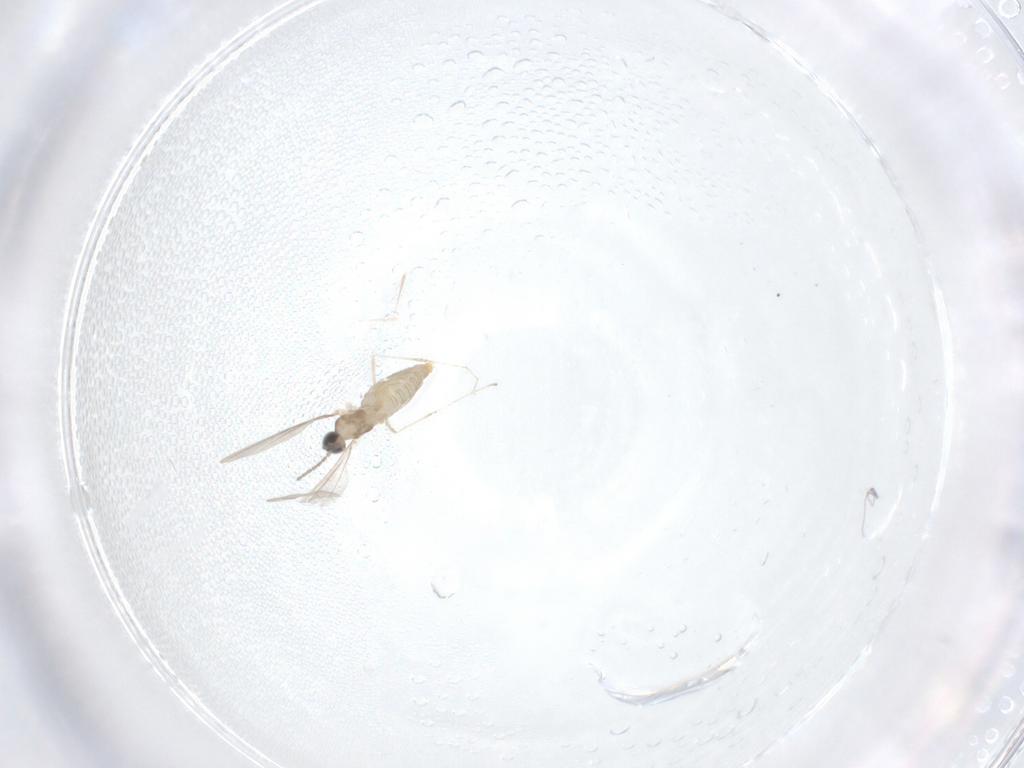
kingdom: Animalia
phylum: Arthropoda
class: Insecta
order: Diptera
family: Cecidomyiidae
